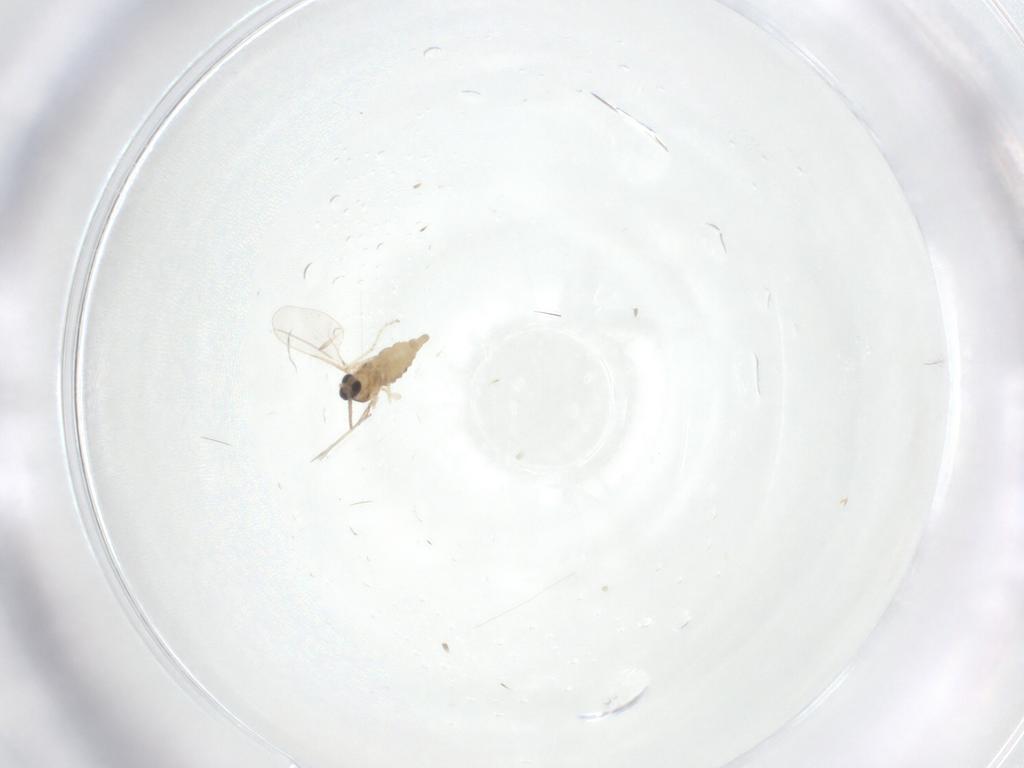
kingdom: Animalia
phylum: Arthropoda
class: Insecta
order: Diptera
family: Cecidomyiidae
